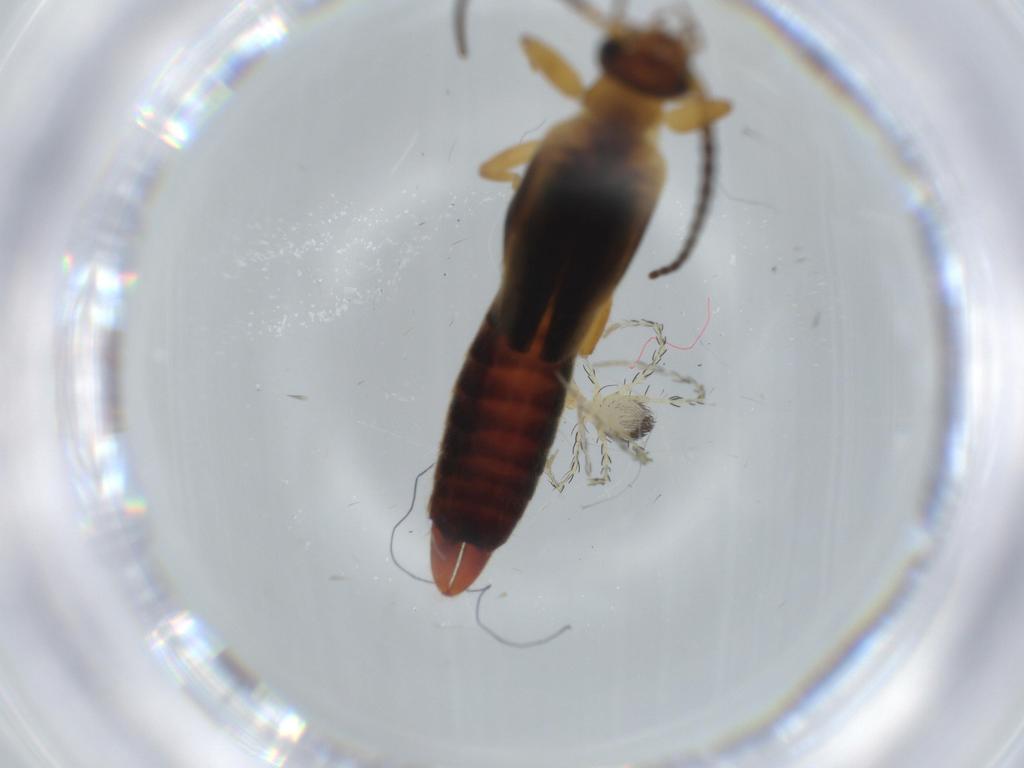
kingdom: Animalia
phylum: Arthropoda
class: Insecta
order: Dermaptera
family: Forficulidae
